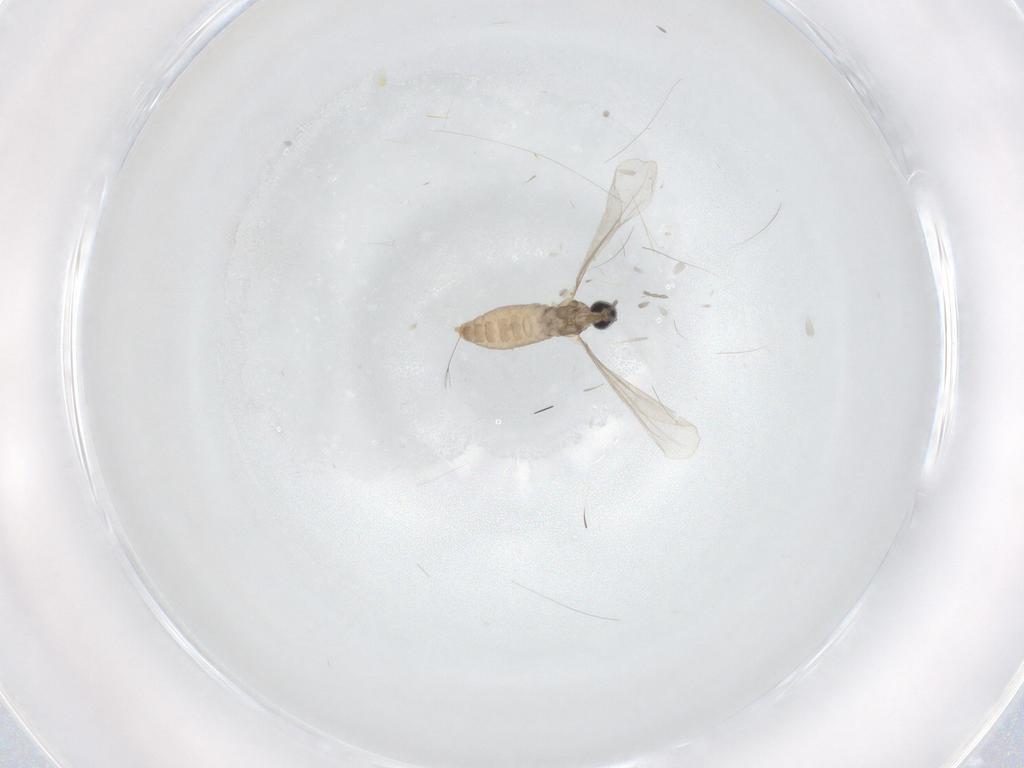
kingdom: Animalia
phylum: Arthropoda
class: Insecta
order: Diptera
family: Cecidomyiidae
